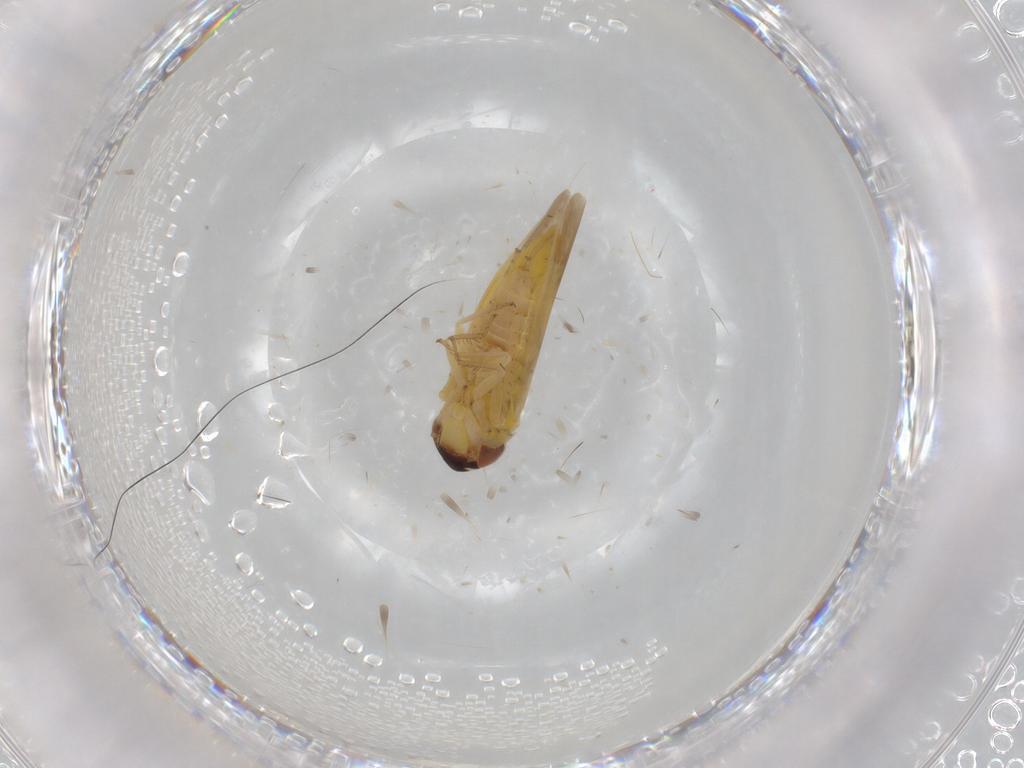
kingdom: Animalia
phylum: Arthropoda
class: Insecta
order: Hemiptera
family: Cicadellidae
